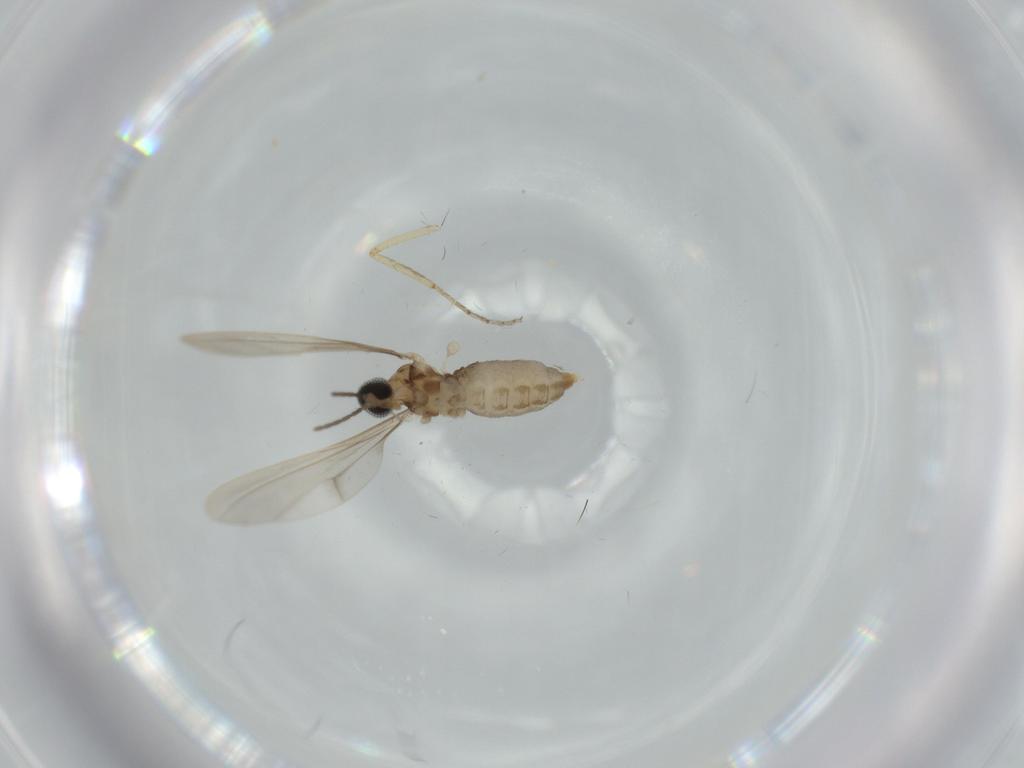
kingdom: Animalia
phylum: Arthropoda
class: Insecta
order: Diptera
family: Cecidomyiidae
